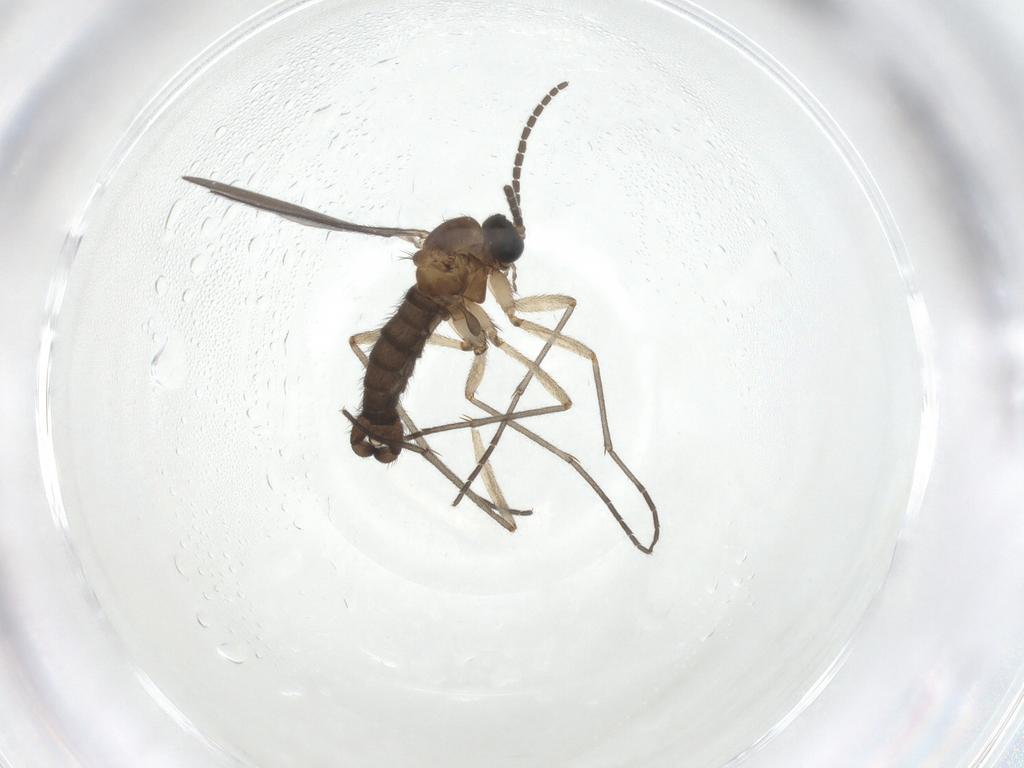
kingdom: Animalia
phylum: Arthropoda
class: Insecta
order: Diptera
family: Sciaridae
